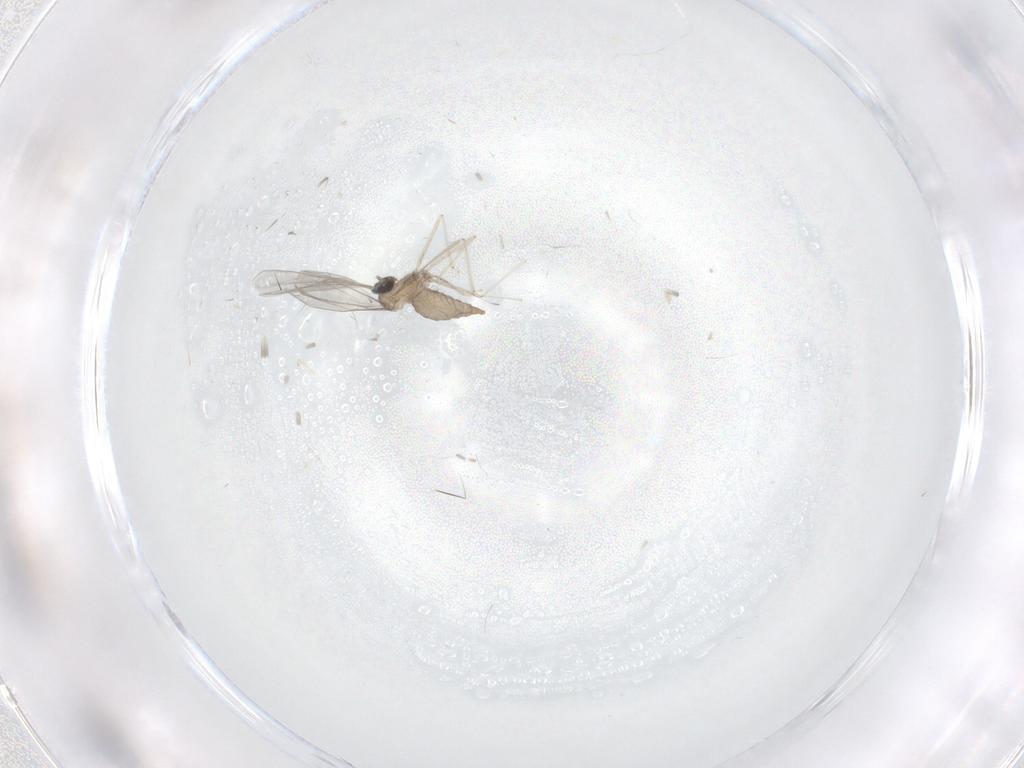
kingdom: Animalia
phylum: Arthropoda
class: Insecta
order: Diptera
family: Cecidomyiidae
